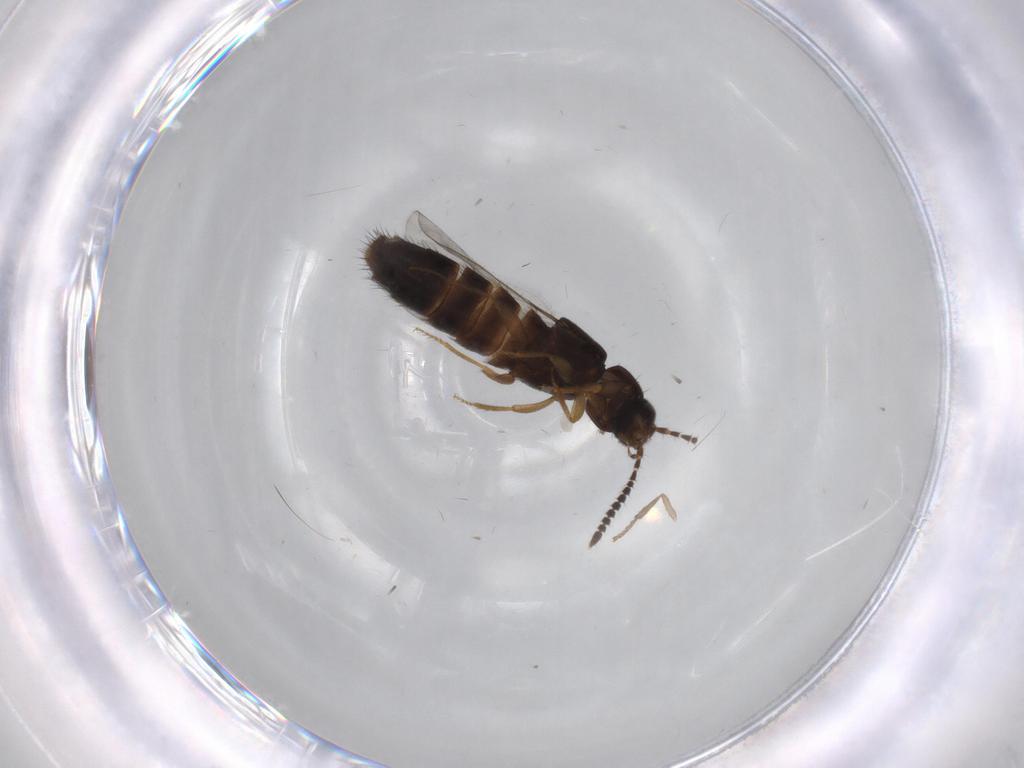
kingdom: Animalia
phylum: Arthropoda
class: Insecta
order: Coleoptera
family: Staphylinidae
